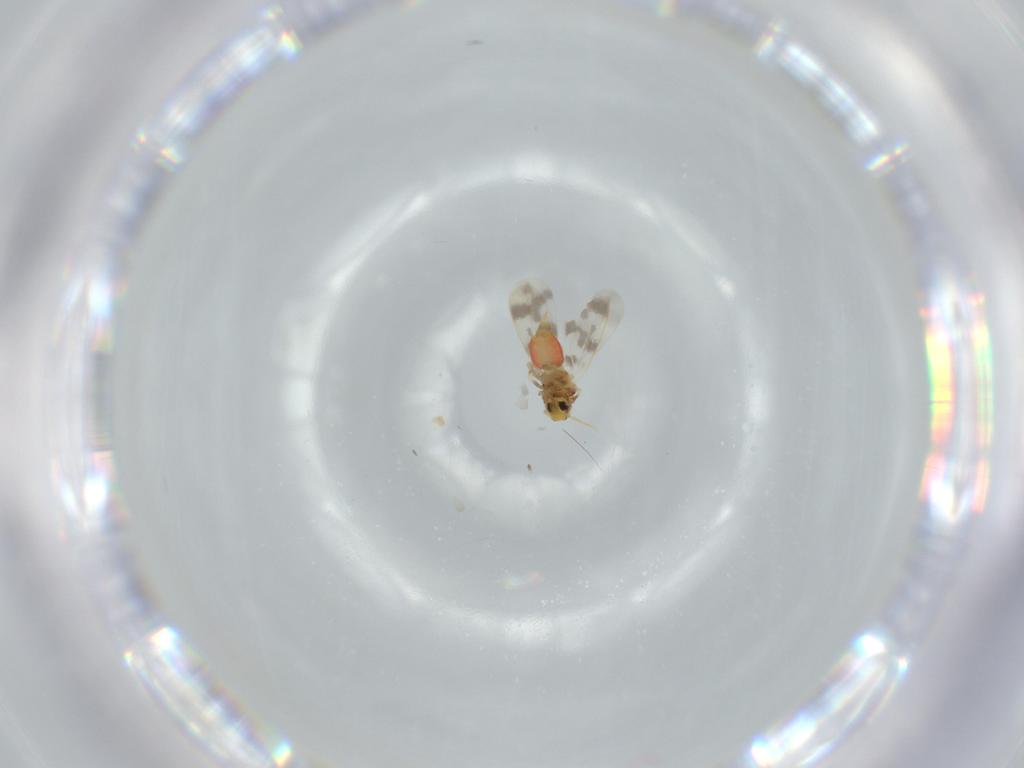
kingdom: Animalia
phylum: Arthropoda
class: Insecta
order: Hemiptera
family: Aleyrodidae
